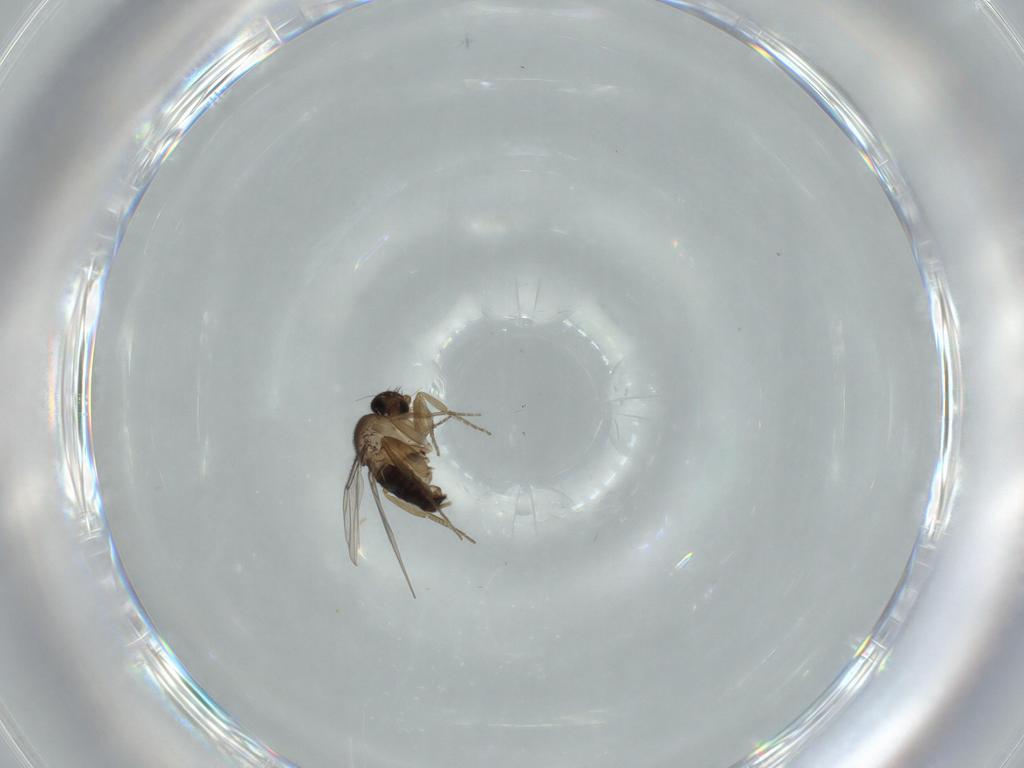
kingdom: Animalia
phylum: Arthropoda
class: Insecta
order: Diptera
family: Phoridae
